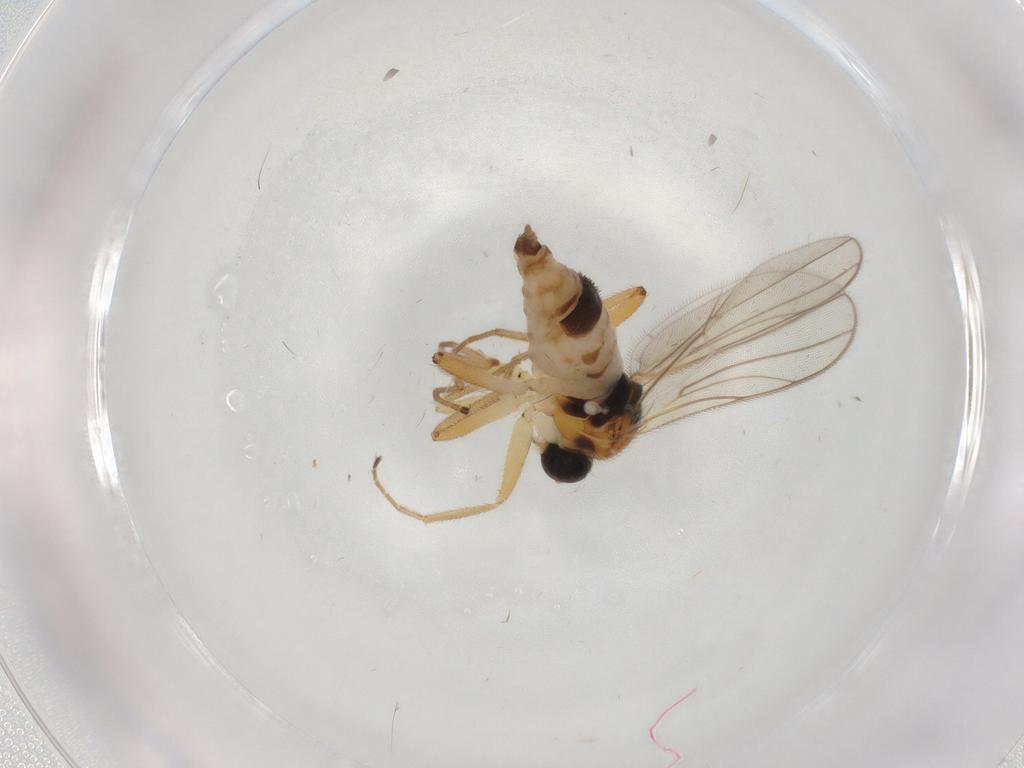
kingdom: Animalia
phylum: Arthropoda
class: Insecta
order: Diptera
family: Hybotidae
